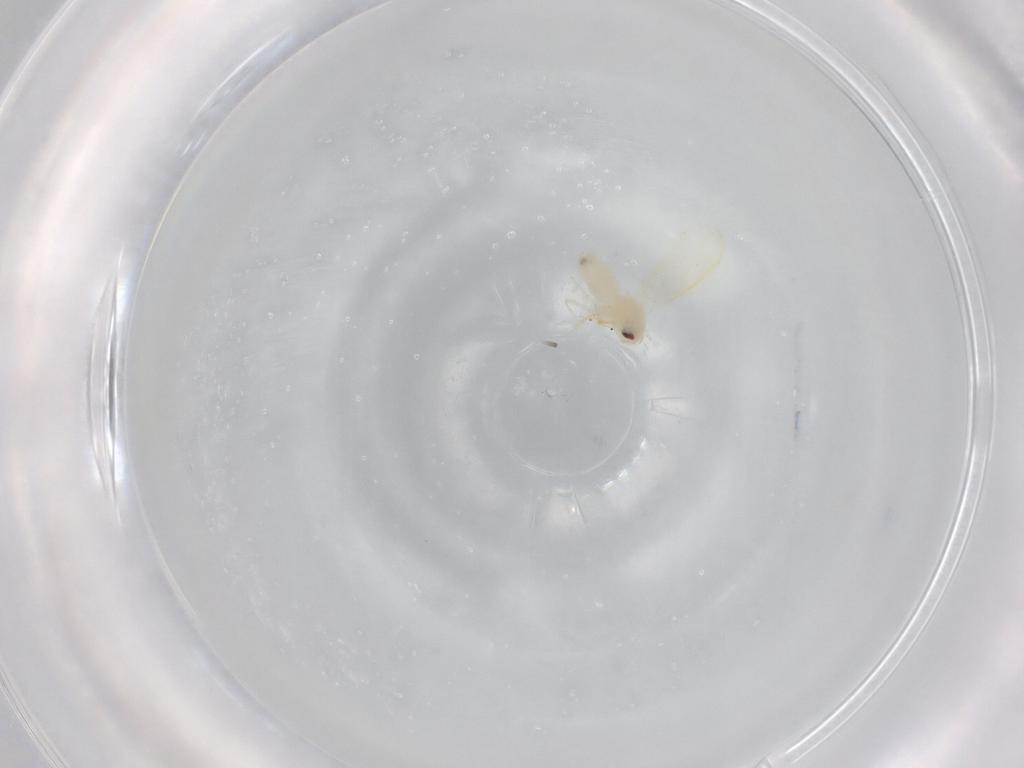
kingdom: Animalia
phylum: Arthropoda
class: Insecta
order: Hemiptera
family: Aleyrodidae
